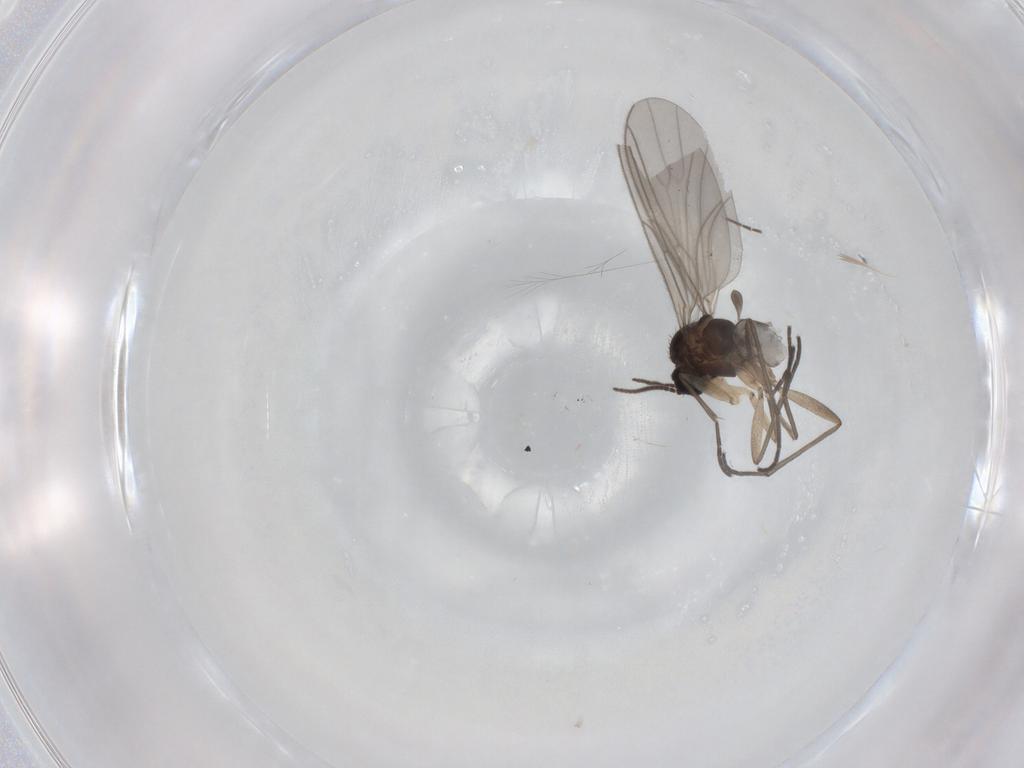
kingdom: Animalia
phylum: Arthropoda
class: Insecta
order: Diptera
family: Sciaridae
